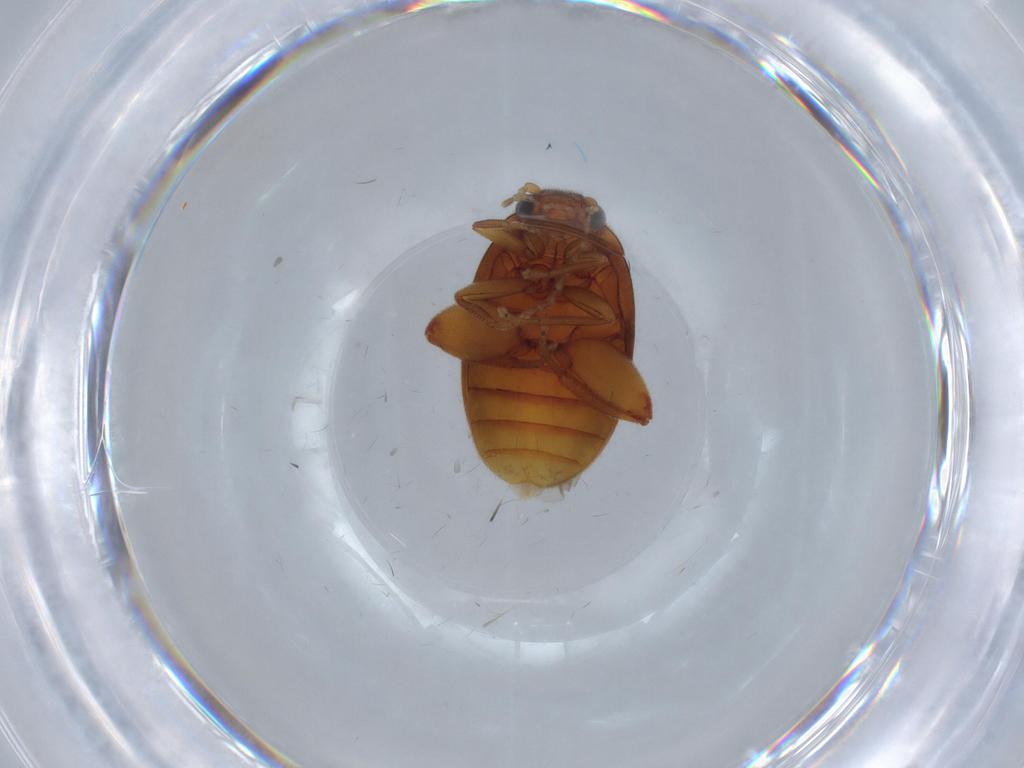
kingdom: Animalia
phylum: Arthropoda
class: Insecta
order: Coleoptera
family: Scirtidae
